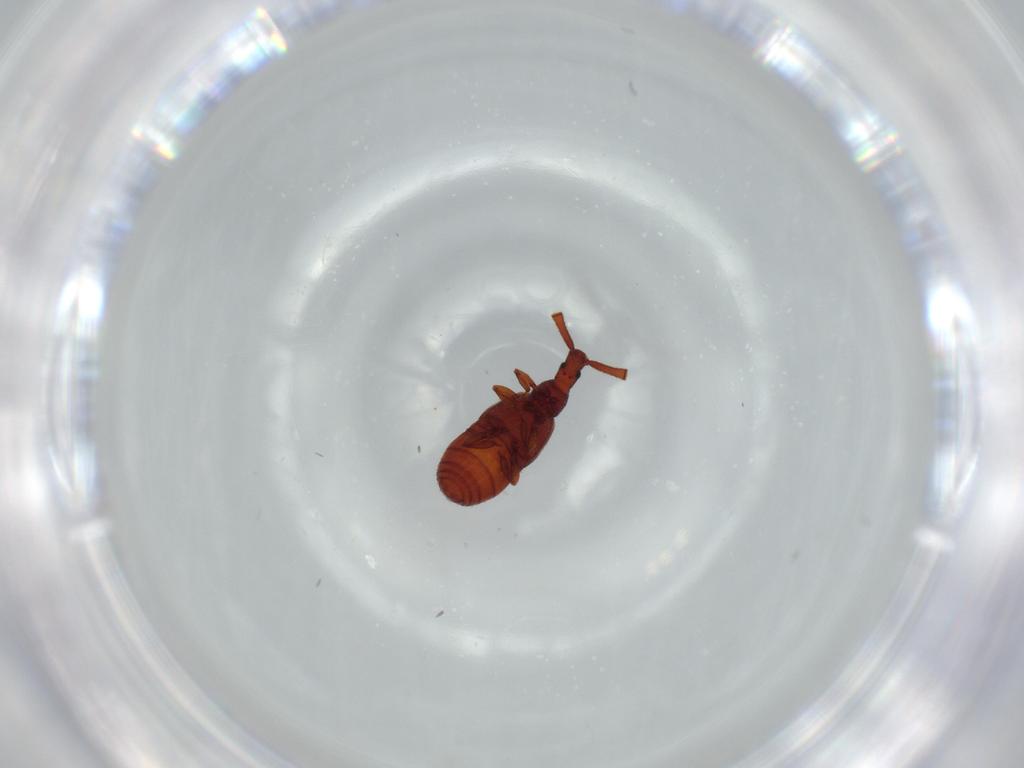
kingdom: Animalia
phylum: Arthropoda
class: Insecta
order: Coleoptera
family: Staphylinidae
